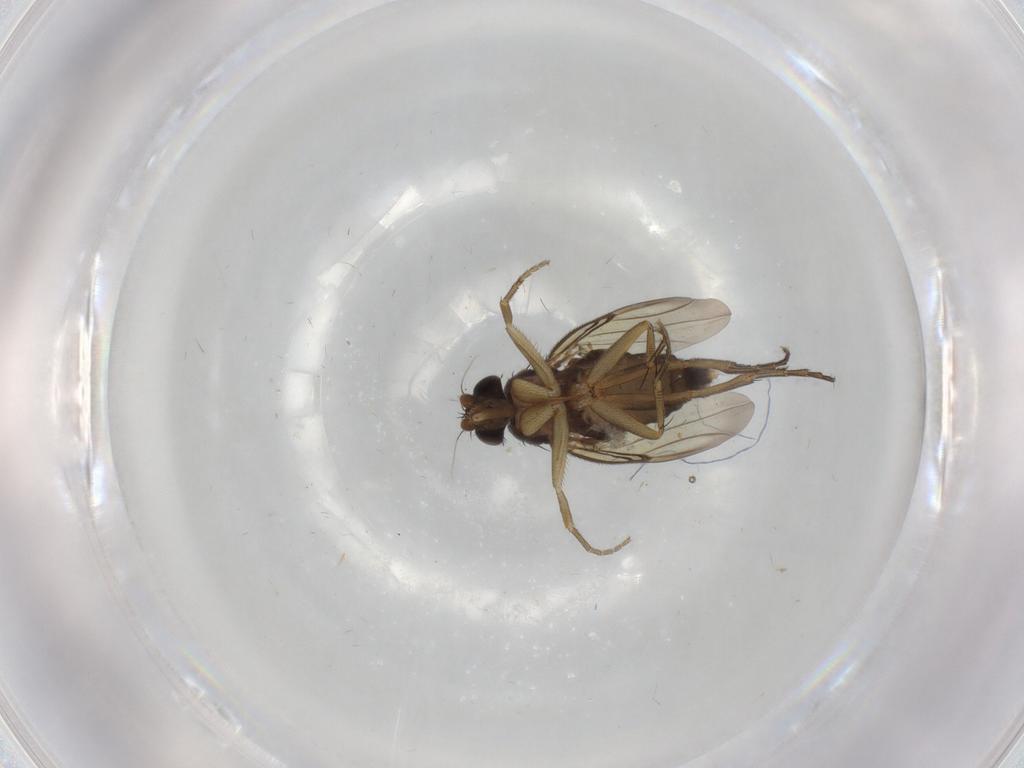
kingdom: Animalia
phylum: Arthropoda
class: Insecta
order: Diptera
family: Phoridae
